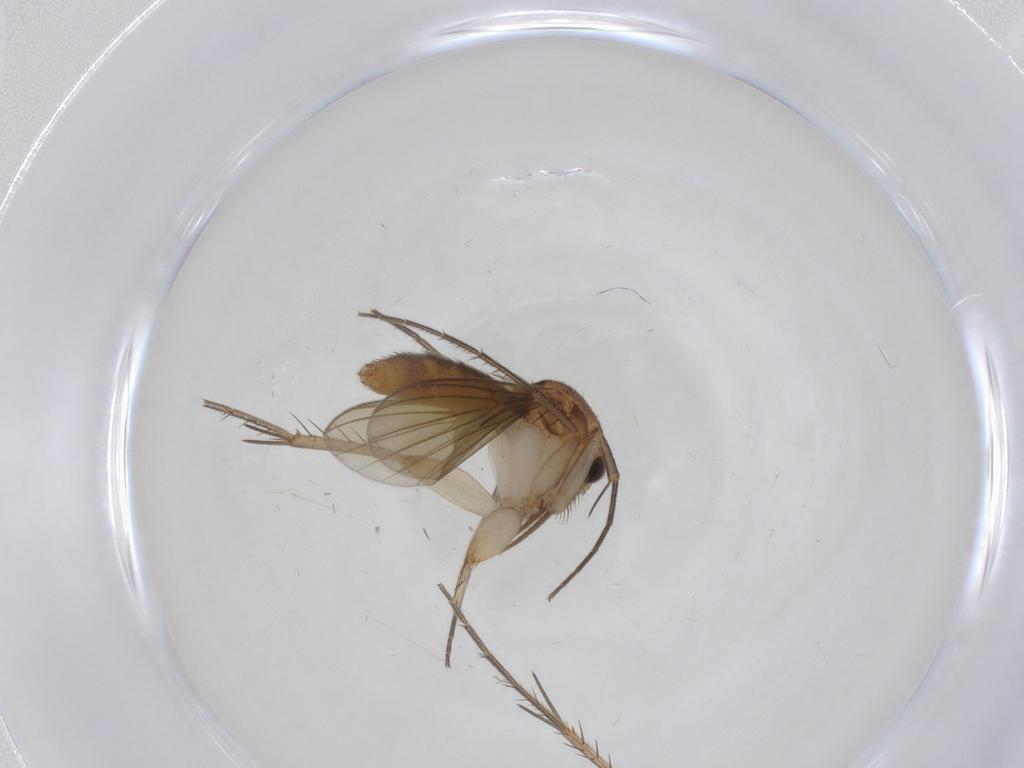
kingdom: Animalia
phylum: Arthropoda
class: Insecta
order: Diptera
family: Mycetophilidae
